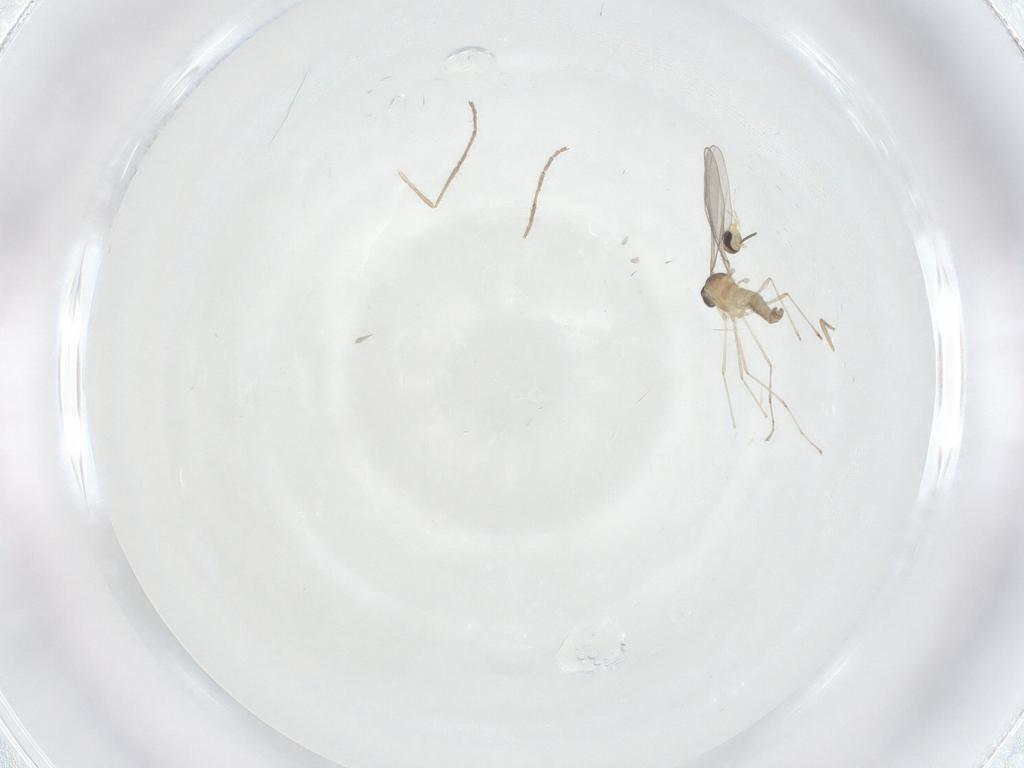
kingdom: Animalia
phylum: Arthropoda
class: Insecta
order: Diptera
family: Cecidomyiidae
